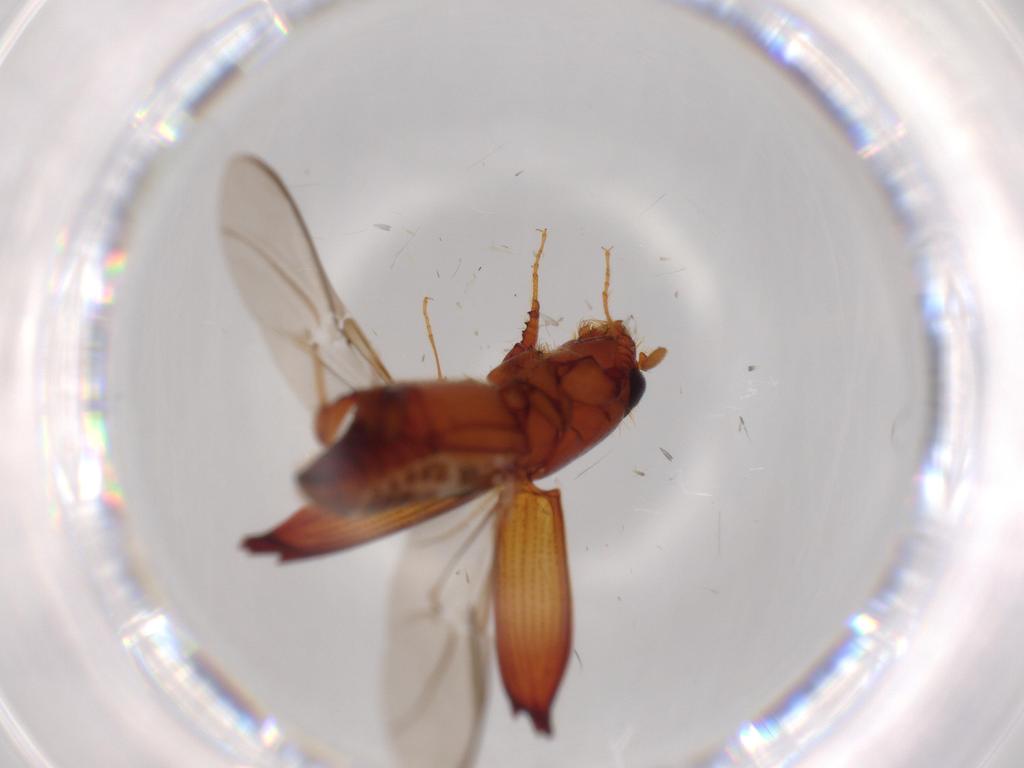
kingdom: Animalia
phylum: Arthropoda
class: Insecta
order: Coleoptera
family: Curculionidae
